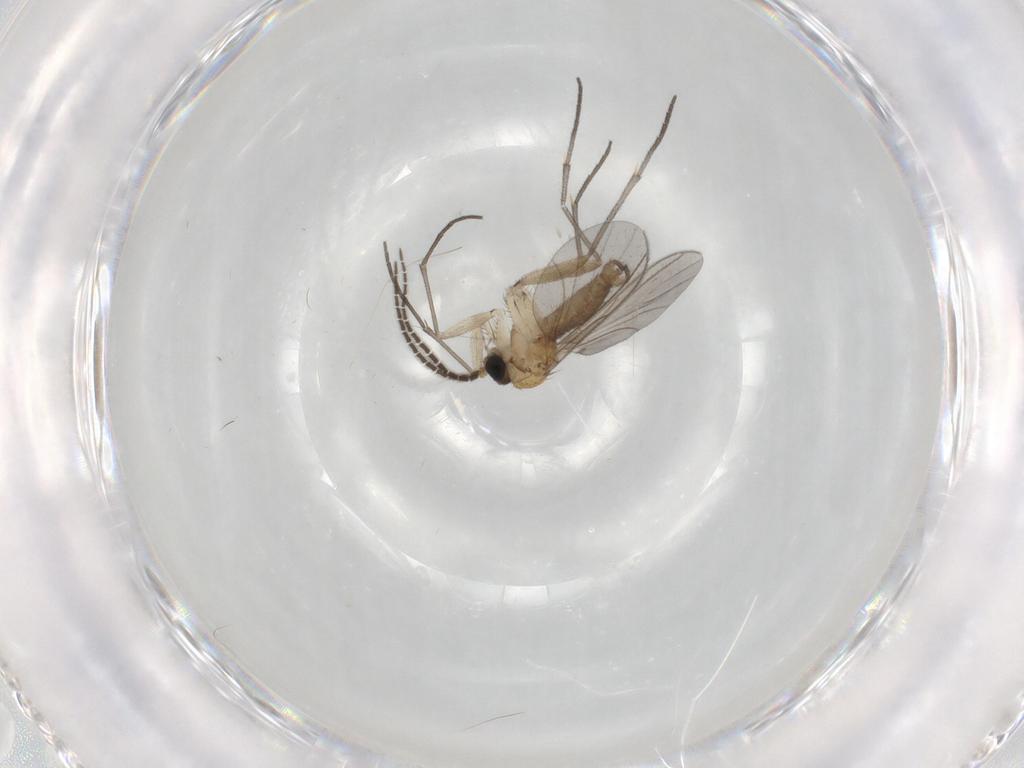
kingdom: Animalia
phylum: Arthropoda
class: Insecta
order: Diptera
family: Sciaridae
